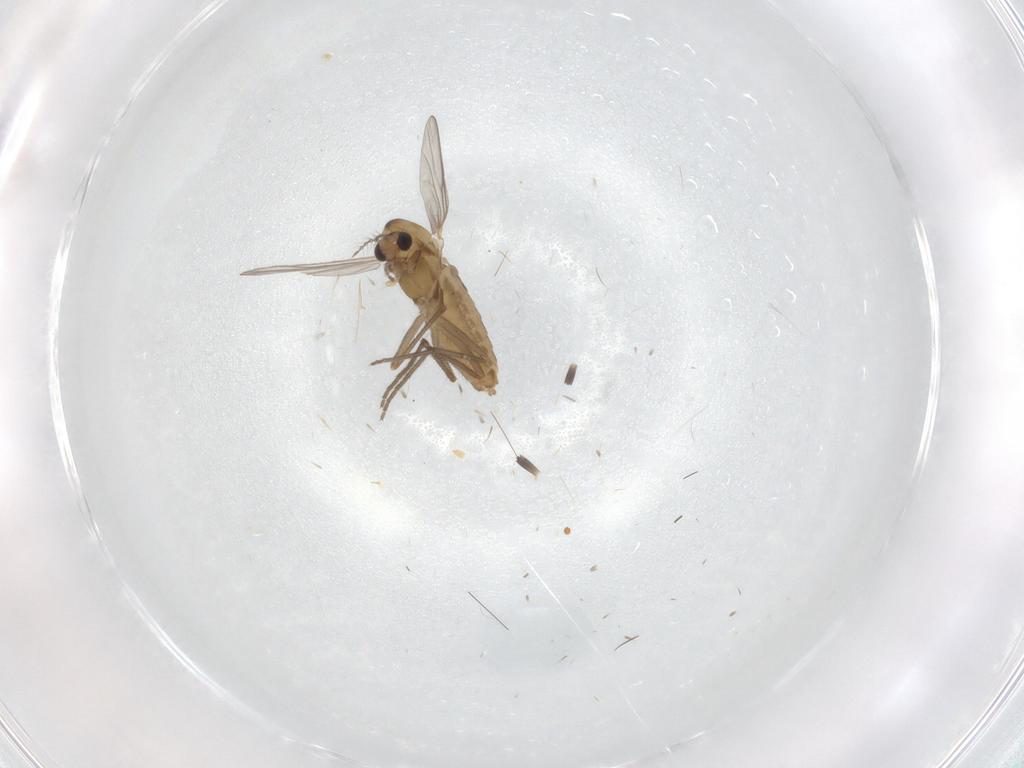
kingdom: Animalia
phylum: Arthropoda
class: Insecta
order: Diptera
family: Chironomidae
